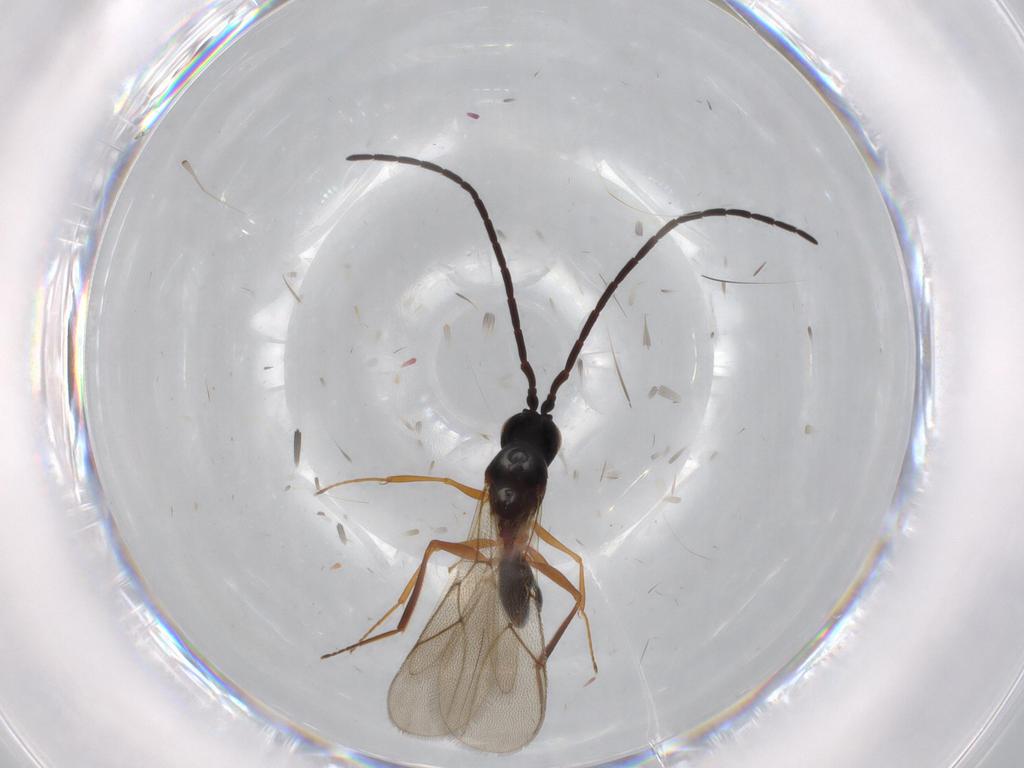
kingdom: Animalia
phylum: Arthropoda
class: Insecta
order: Hymenoptera
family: Figitidae
